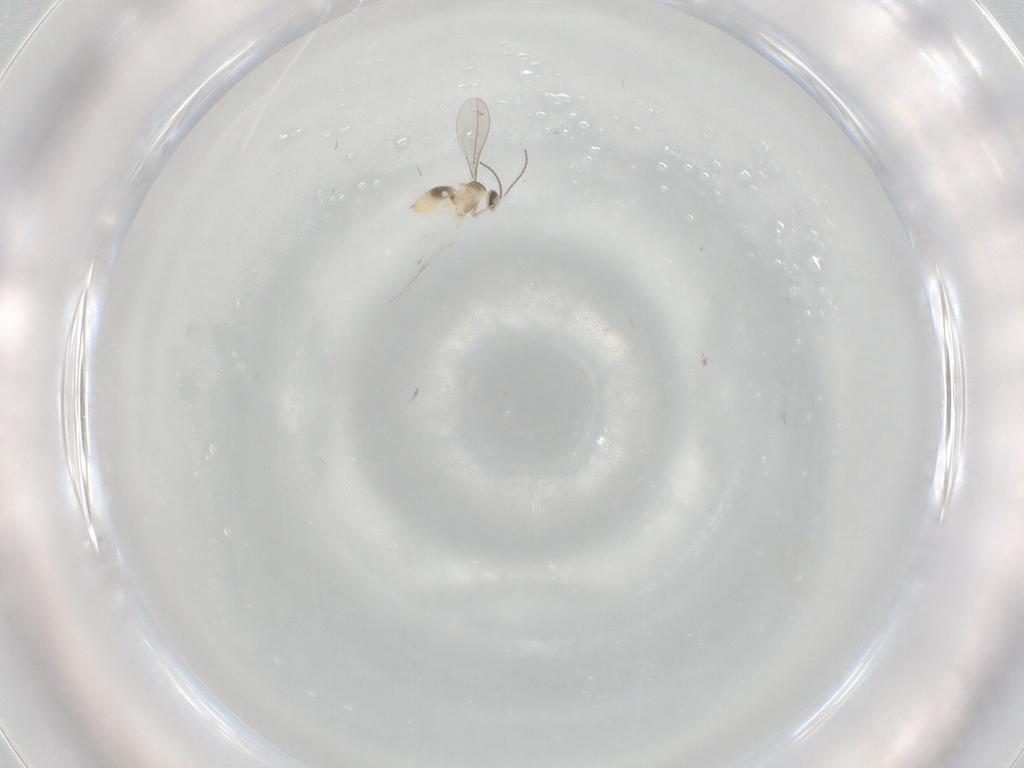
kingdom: Animalia
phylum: Arthropoda
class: Insecta
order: Diptera
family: Cecidomyiidae
